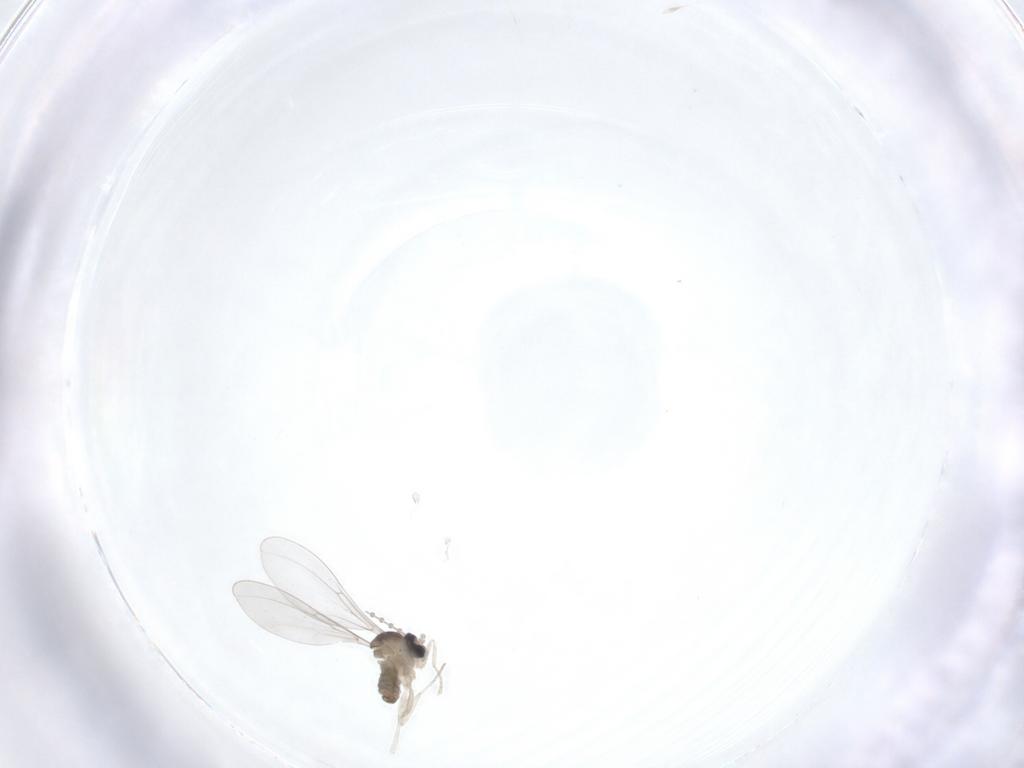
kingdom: Animalia
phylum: Arthropoda
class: Insecta
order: Diptera
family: Cecidomyiidae
